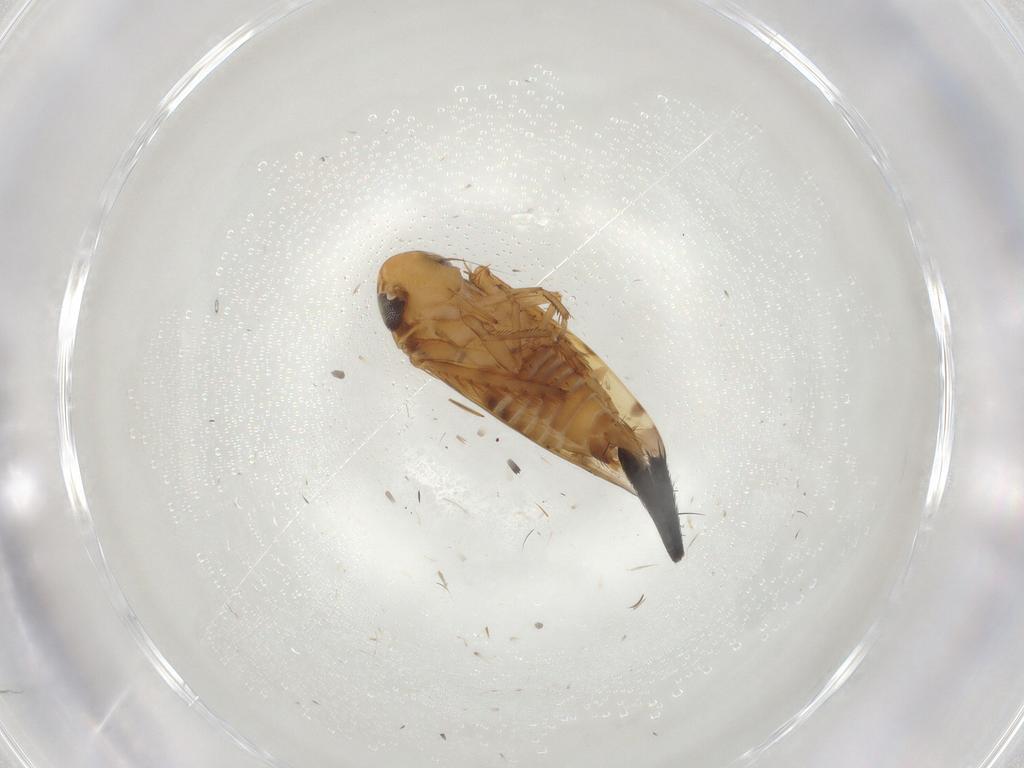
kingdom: Animalia
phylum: Arthropoda
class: Insecta
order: Hemiptera
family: Cicadellidae
